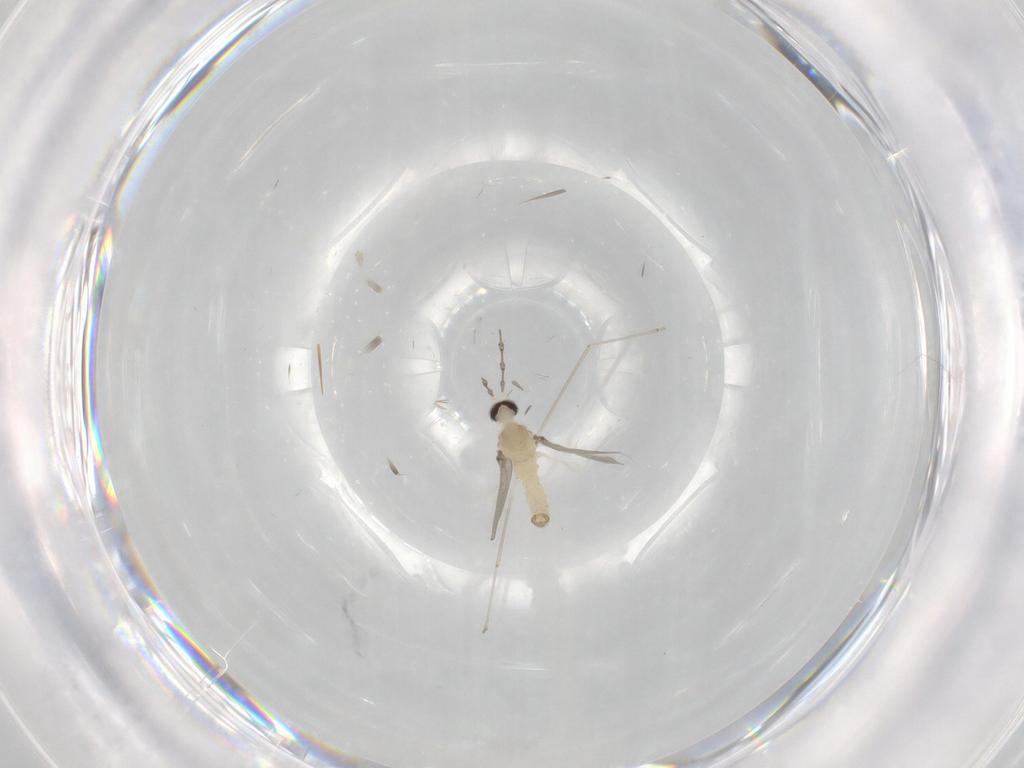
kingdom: Animalia
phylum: Arthropoda
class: Insecta
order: Diptera
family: Cecidomyiidae
